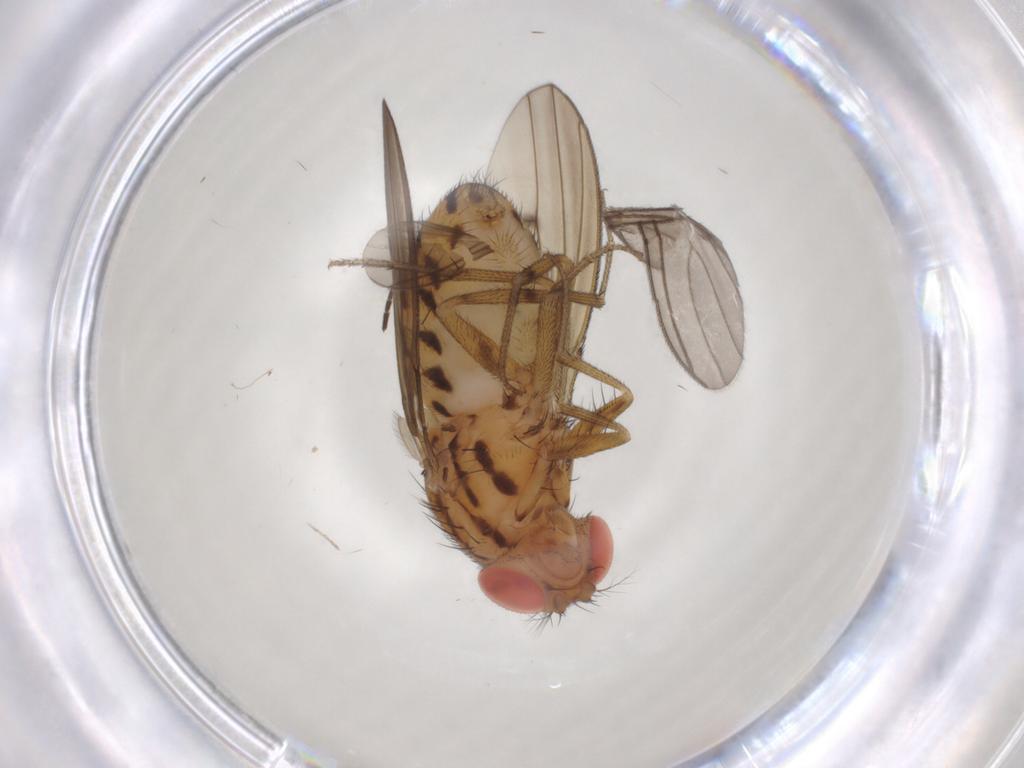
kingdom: Animalia
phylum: Arthropoda
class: Insecta
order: Diptera
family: Drosophilidae
